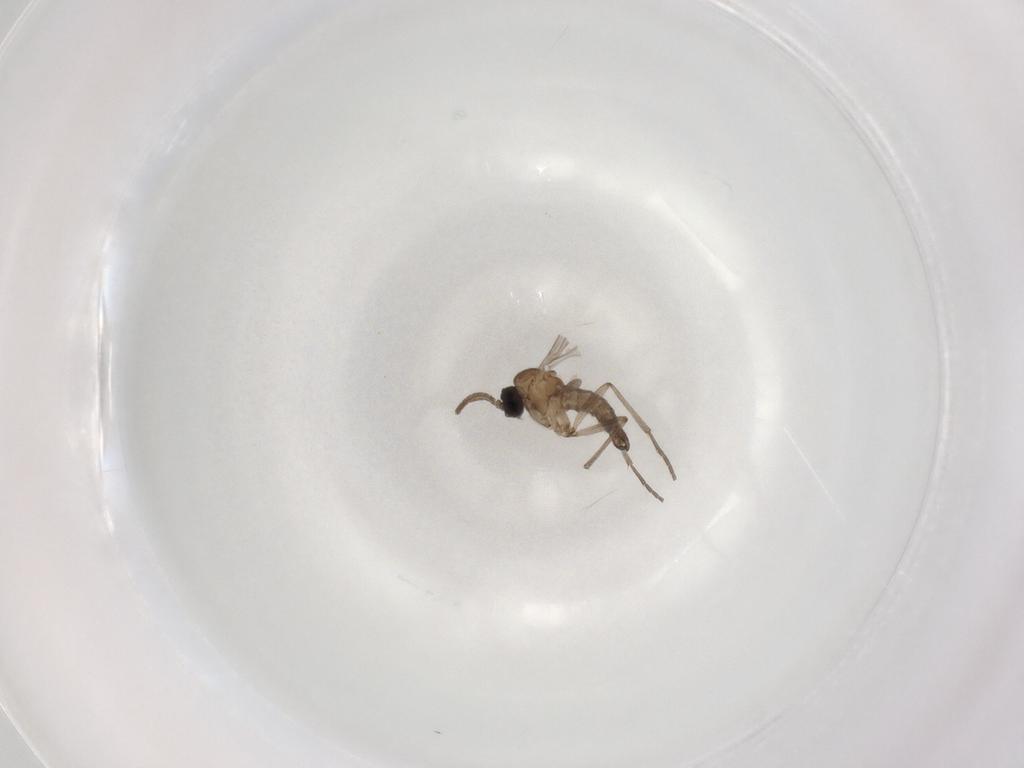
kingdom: Animalia
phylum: Arthropoda
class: Insecta
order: Diptera
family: Sciaridae
